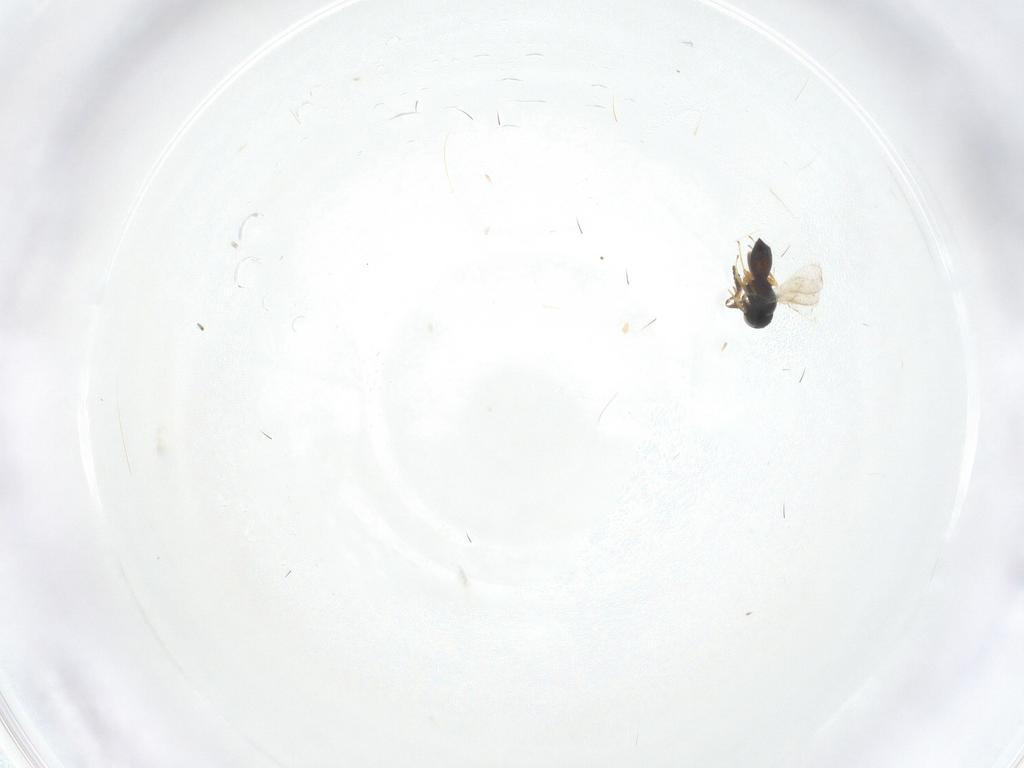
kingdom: Animalia
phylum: Arthropoda
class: Insecta
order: Hymenoptera
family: Scelionidae
